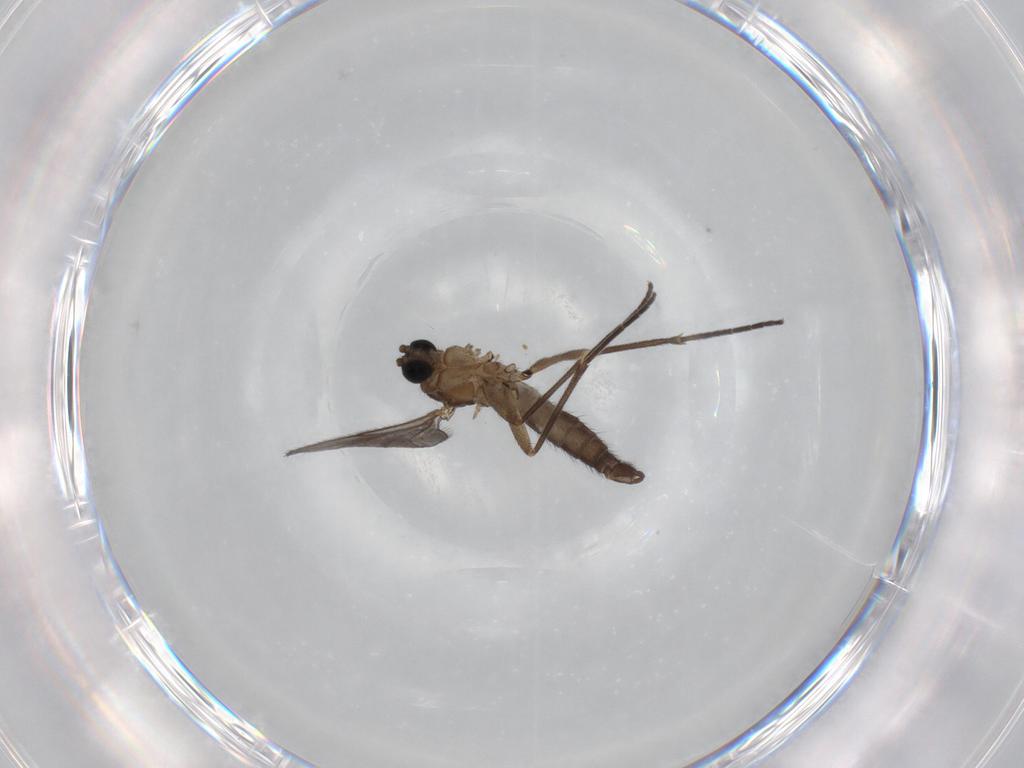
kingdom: Animalia
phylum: Arthropoda
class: Insecta
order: Diptera
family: Sciaridae
